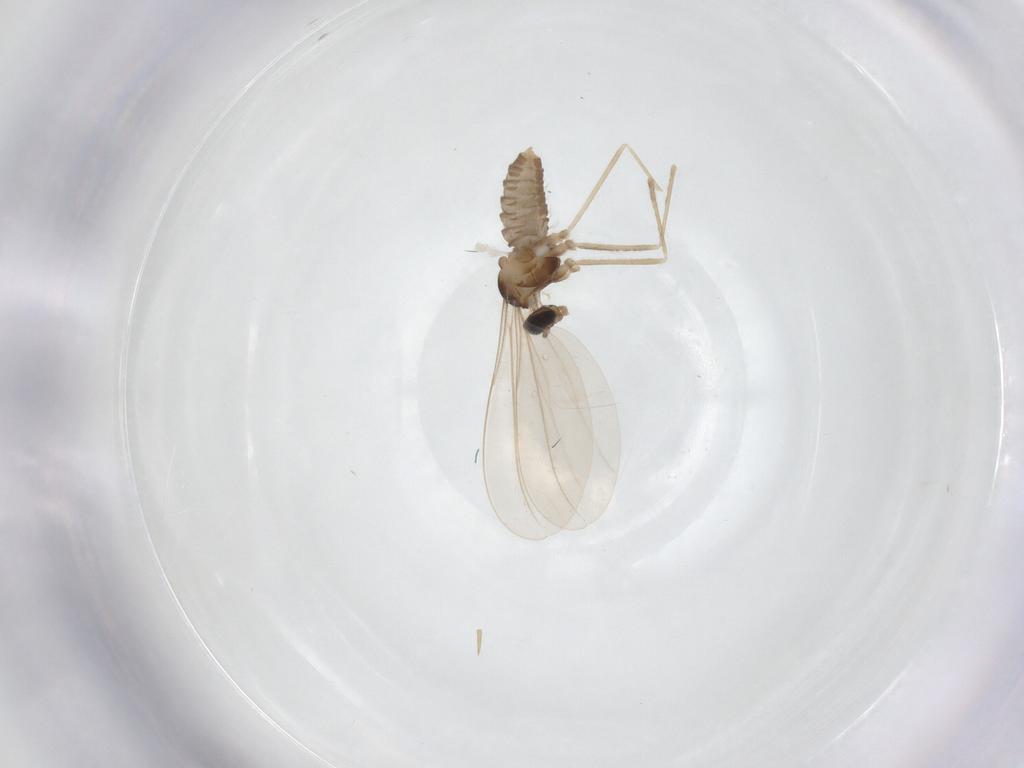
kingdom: Animalia
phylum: Arthropoda
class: Insecta
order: Diptera
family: Cecidomyiidae
